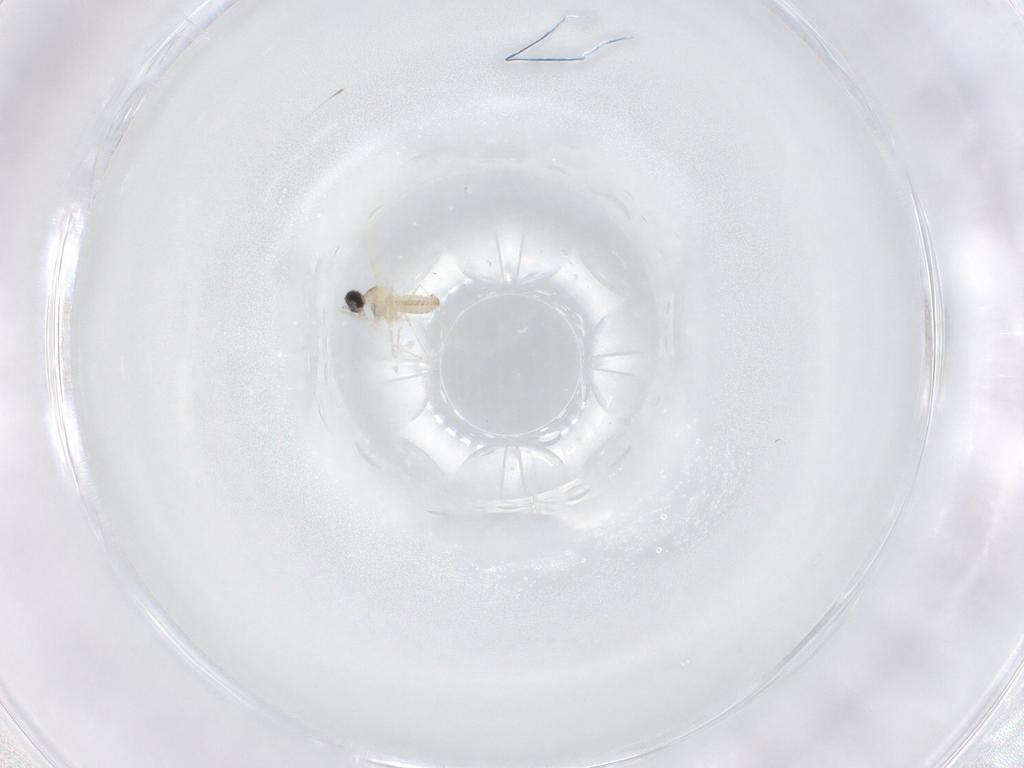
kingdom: Animalia
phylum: Arthropoda
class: Insecta
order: Diptera
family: Cecidomyiidae
